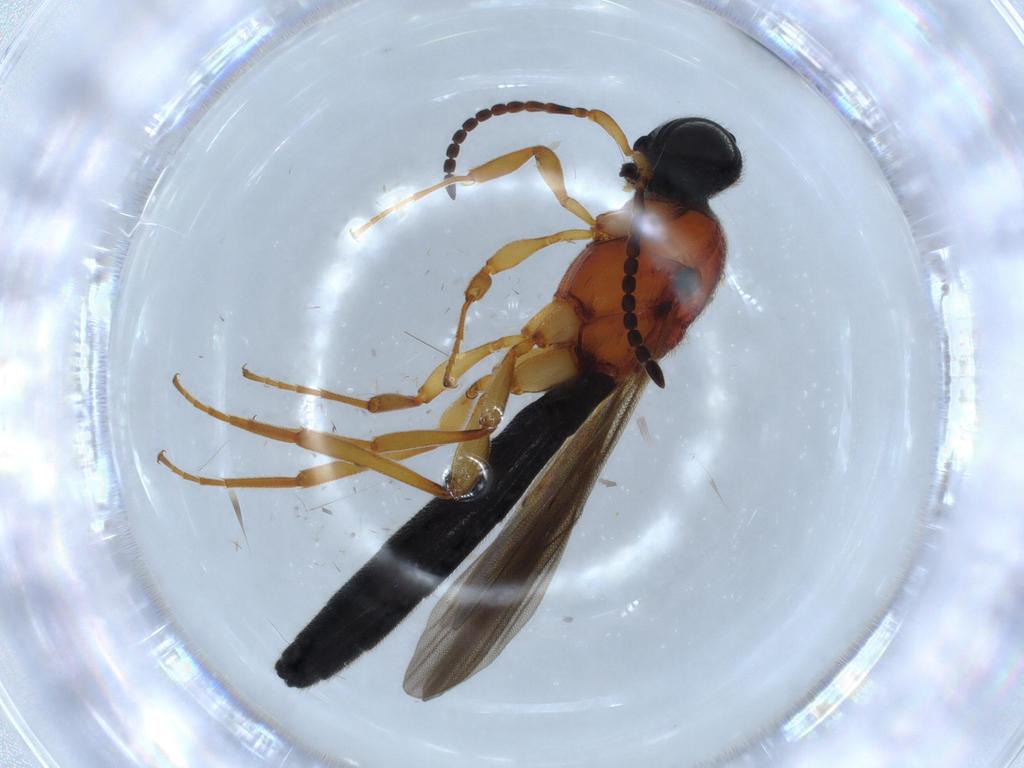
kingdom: Animalia
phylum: Arthropoda
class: Insecta
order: Hymenoptera
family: Scelionidae
